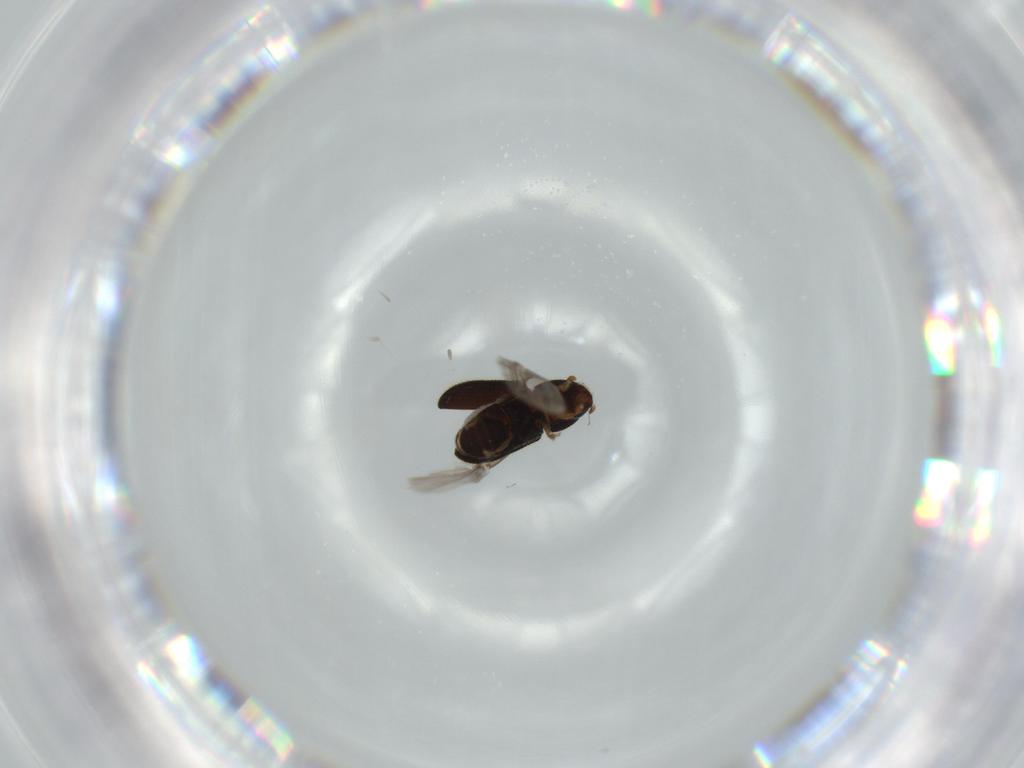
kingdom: Animalia
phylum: Arthropoda
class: Insecta
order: Coleoptera
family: Curculionidae
